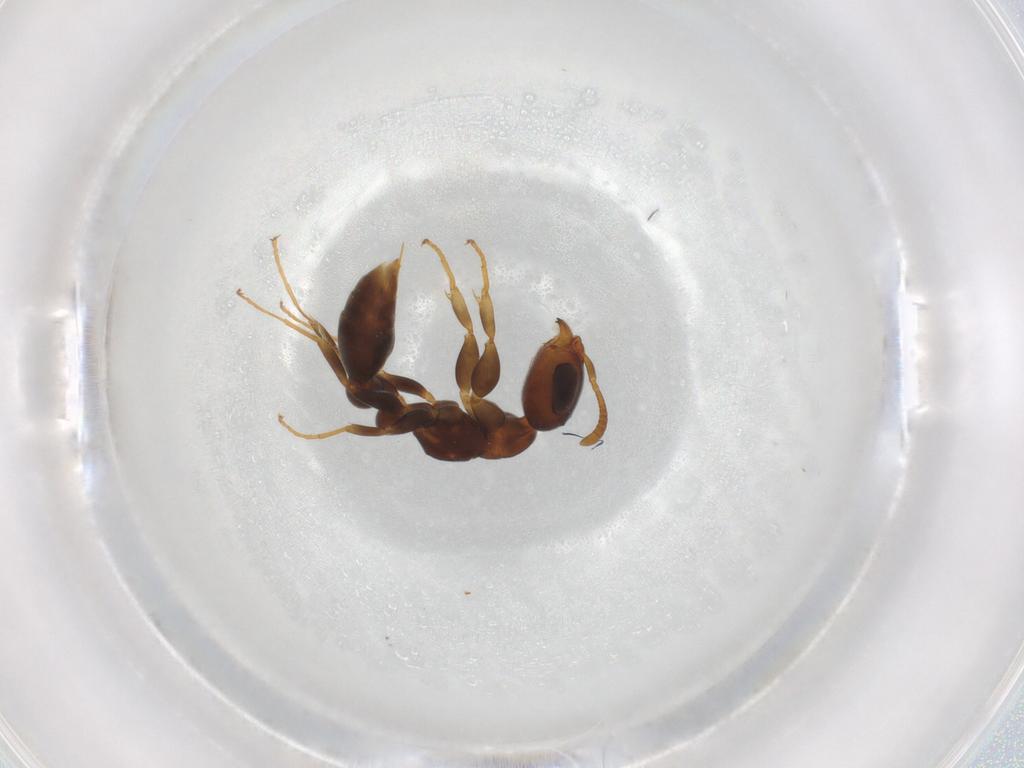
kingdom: Animalia
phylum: Arthropoda
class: Insecta
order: Hymenoptera
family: Formicidae
